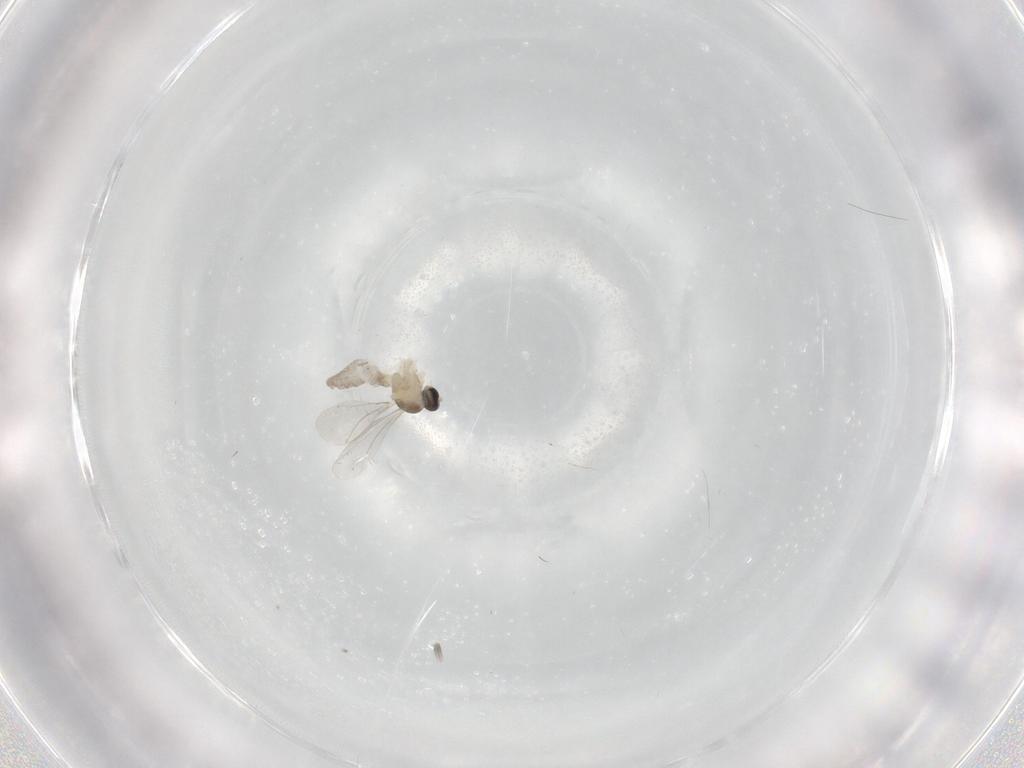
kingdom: Animalia
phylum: Arthropoda
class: Insecta
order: Diptera
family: Cecidomyiidae
